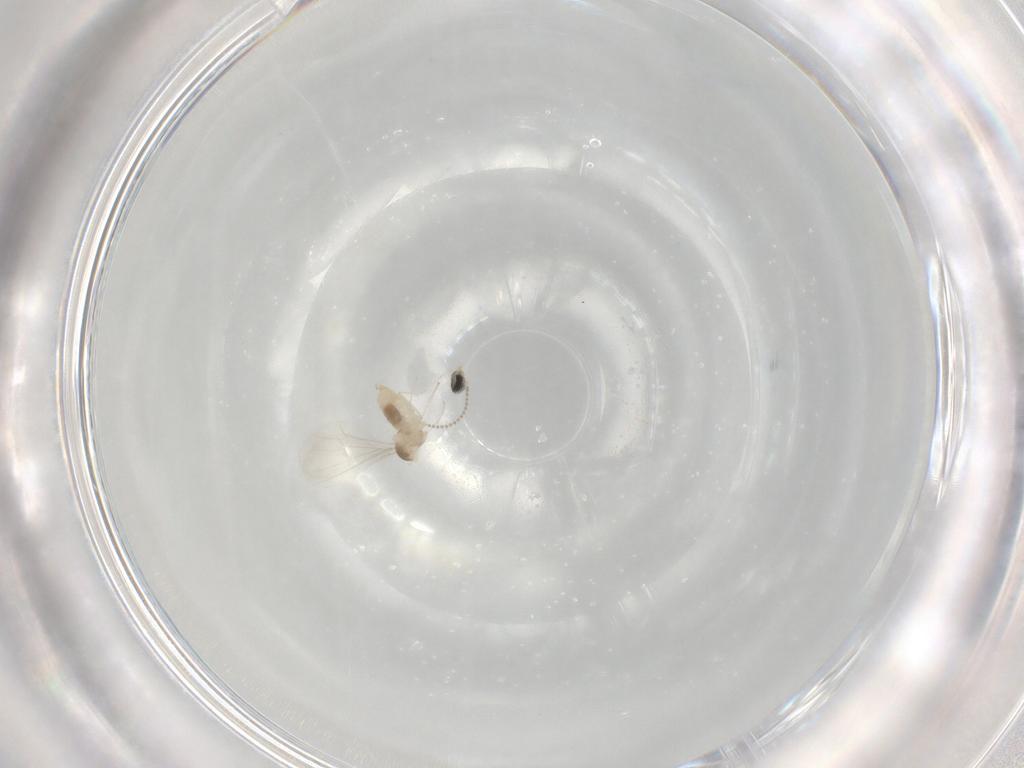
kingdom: Animalia
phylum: Arthropoda
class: Insecta
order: Diptera
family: Cecidomyiidae
